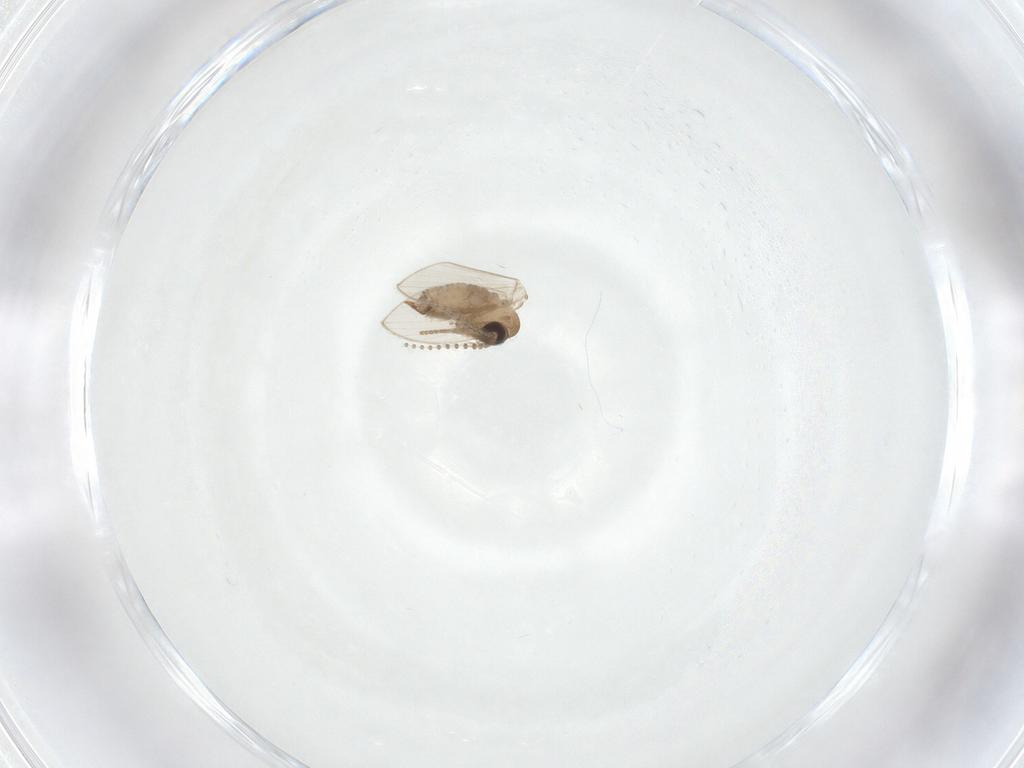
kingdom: Animalia
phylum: Arthropoda
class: Insecta
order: Diptera
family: Psychodidae
